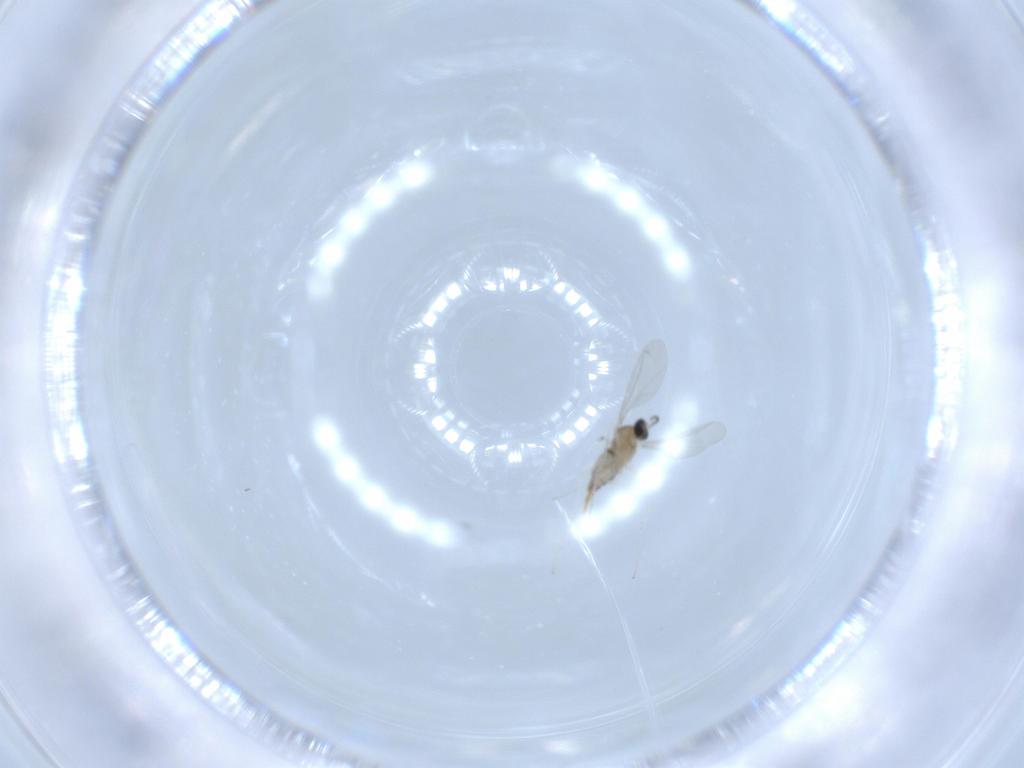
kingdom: Animalia
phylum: Arthropoda
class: Insecta
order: Diptera
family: Cecidomyiidae
